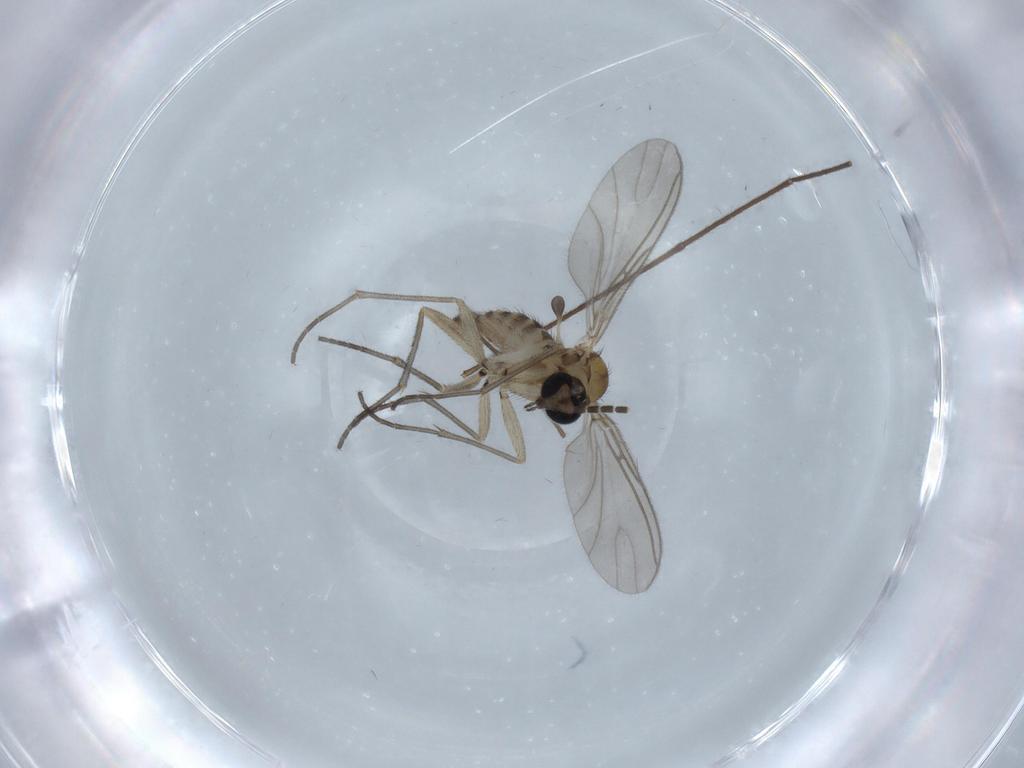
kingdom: Animalia
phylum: Arthropoda
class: Insecta
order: Diptera
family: Sciaridae
